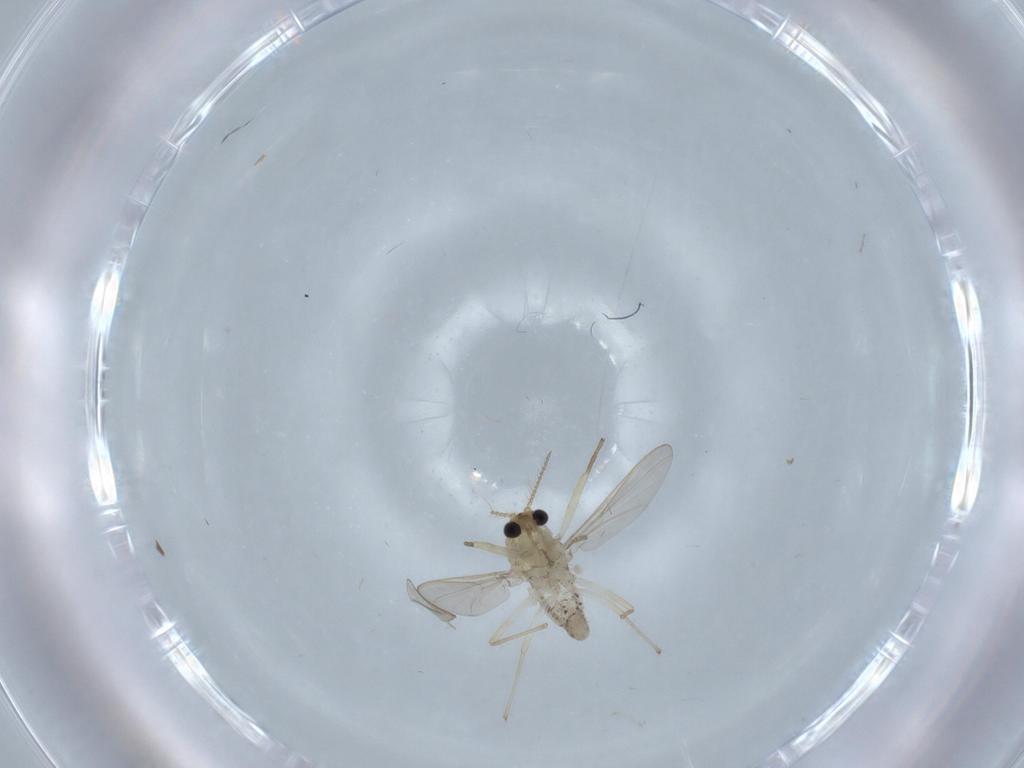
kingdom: Animalia
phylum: Arthropoda
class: Insecta
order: Diptera
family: Chironomidae
